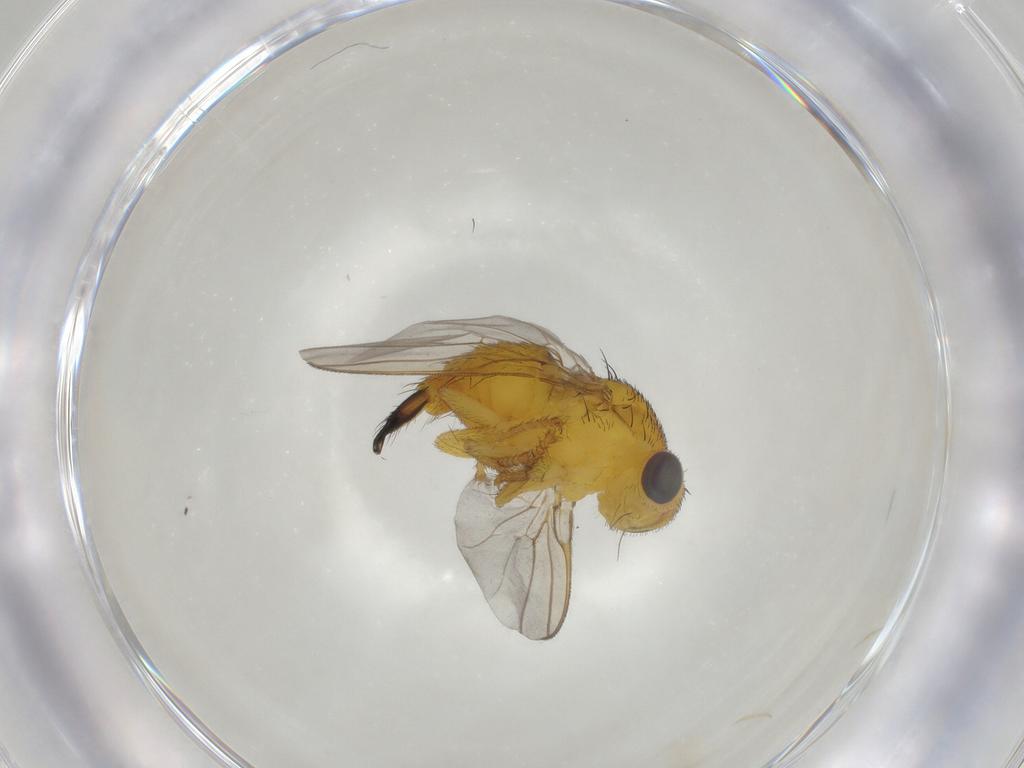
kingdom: Animalia
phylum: Arthropoda
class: Insecta
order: Diptera
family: Fergusoninidae
